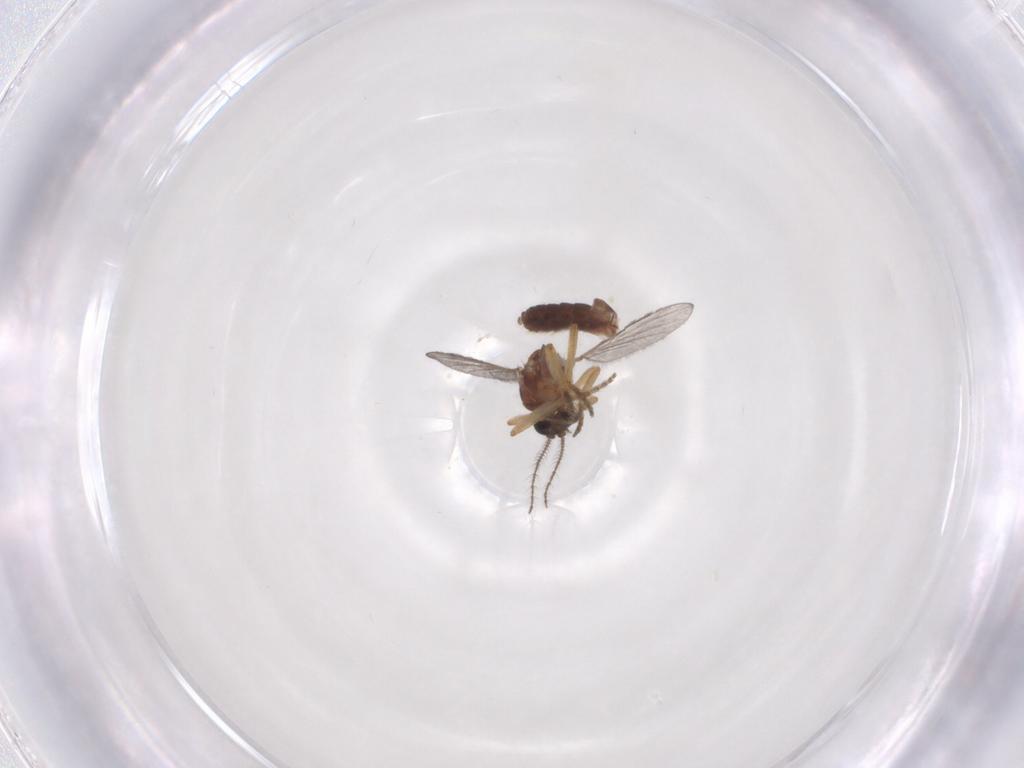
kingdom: Animalia
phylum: Arthropoda
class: Insecta
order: Diptera
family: Ceratopogonidae
